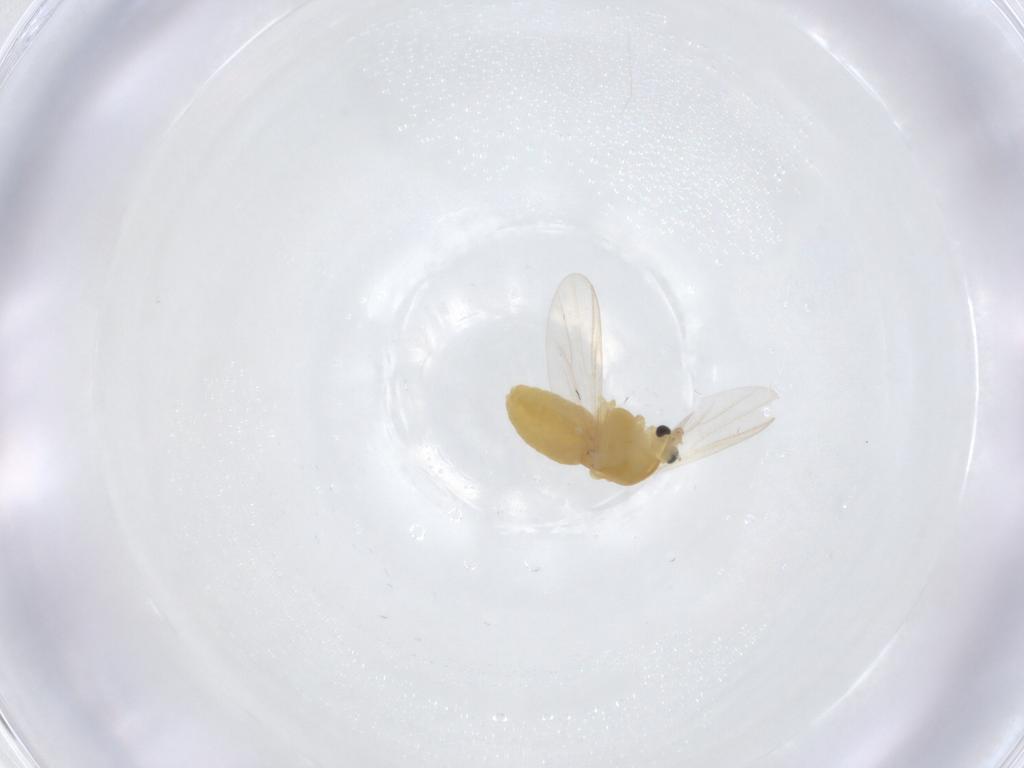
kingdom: Animalia
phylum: Arthropoda
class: Insecta
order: Diptera
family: Chironomidae
